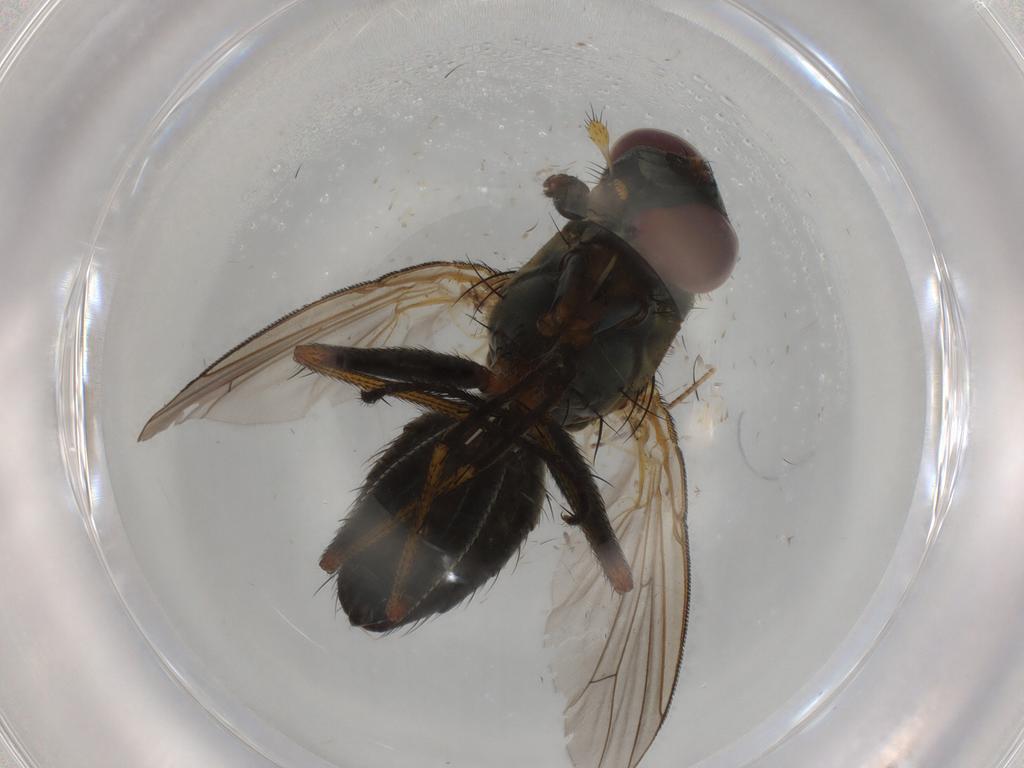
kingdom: Animalia
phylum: Arthropoda
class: Insecta
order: Diptera
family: Muscidae
